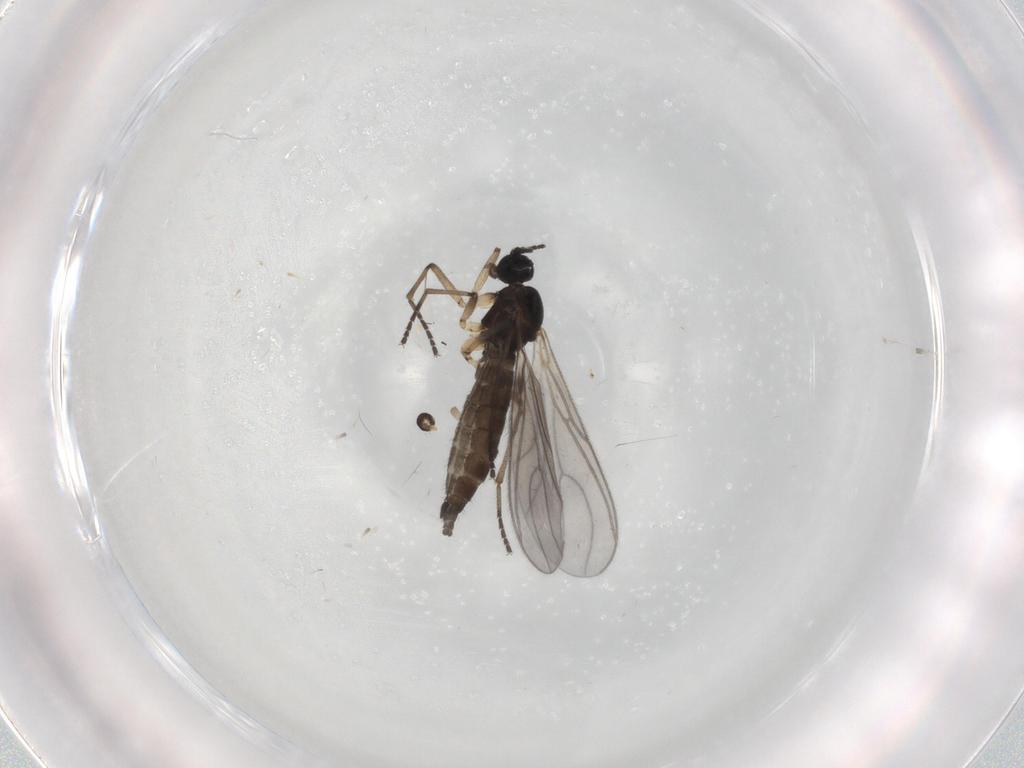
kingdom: Animalia
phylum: Arthropoda
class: Insecta
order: Diptera
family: Sciaridae
